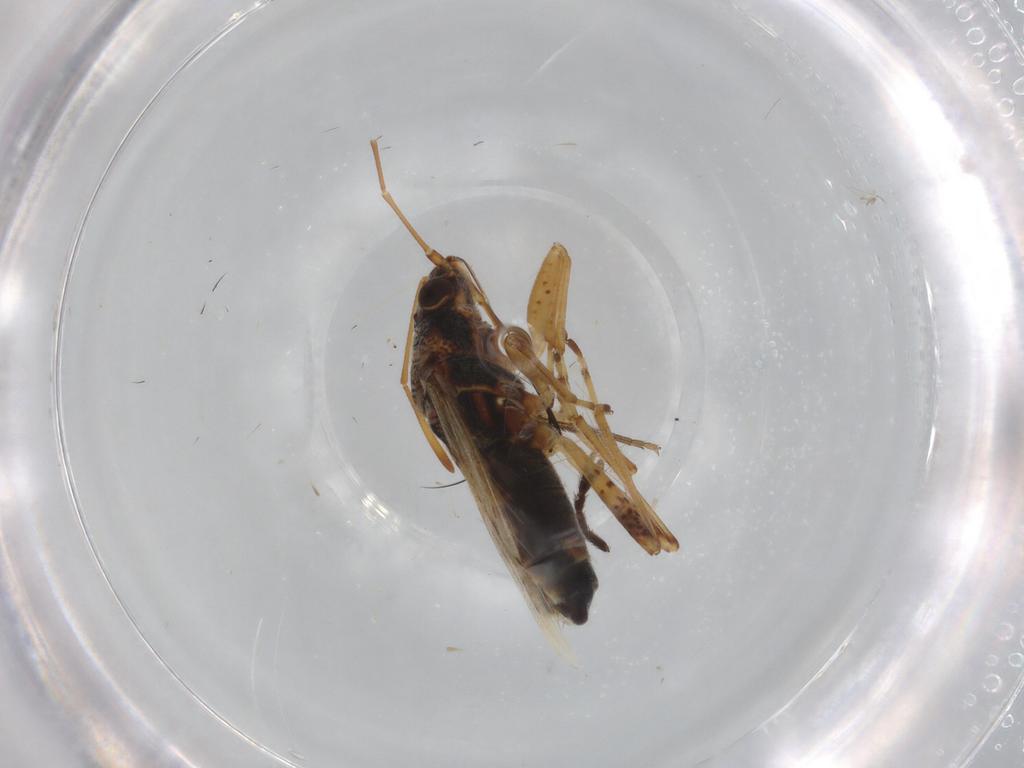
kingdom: Animalia
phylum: Arthropoda
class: Insecta
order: Hemiptera
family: Lygaeidae
